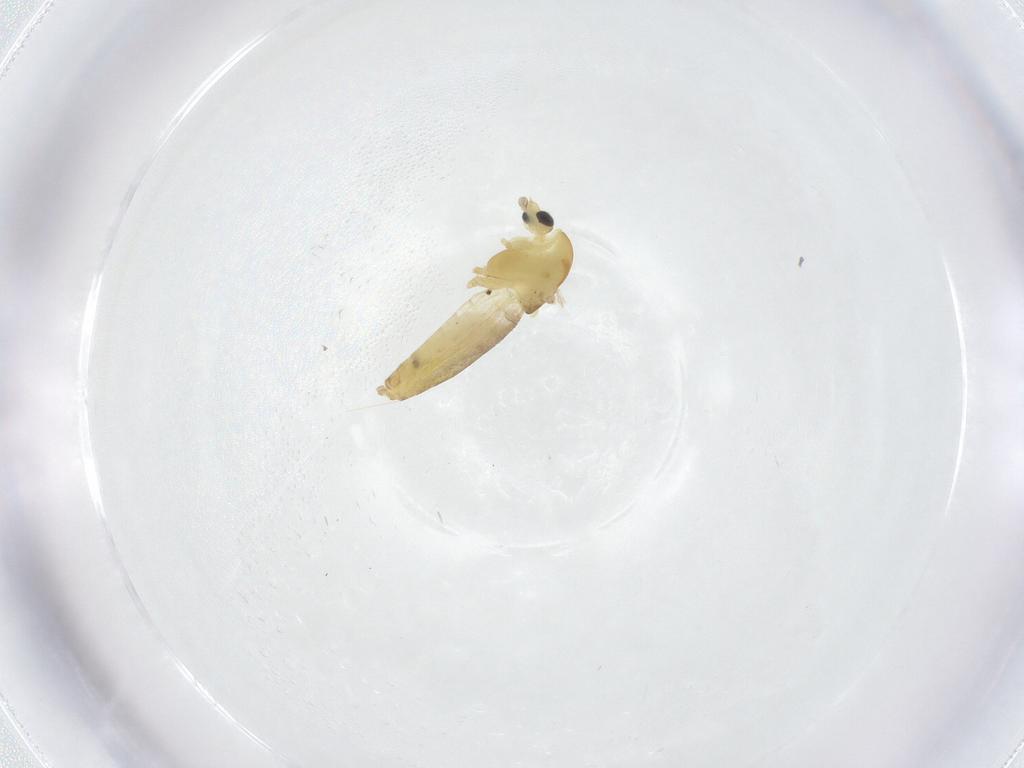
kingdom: Animalia
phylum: Arthropoda
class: Insecta
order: Diptera
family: Chironomidae
